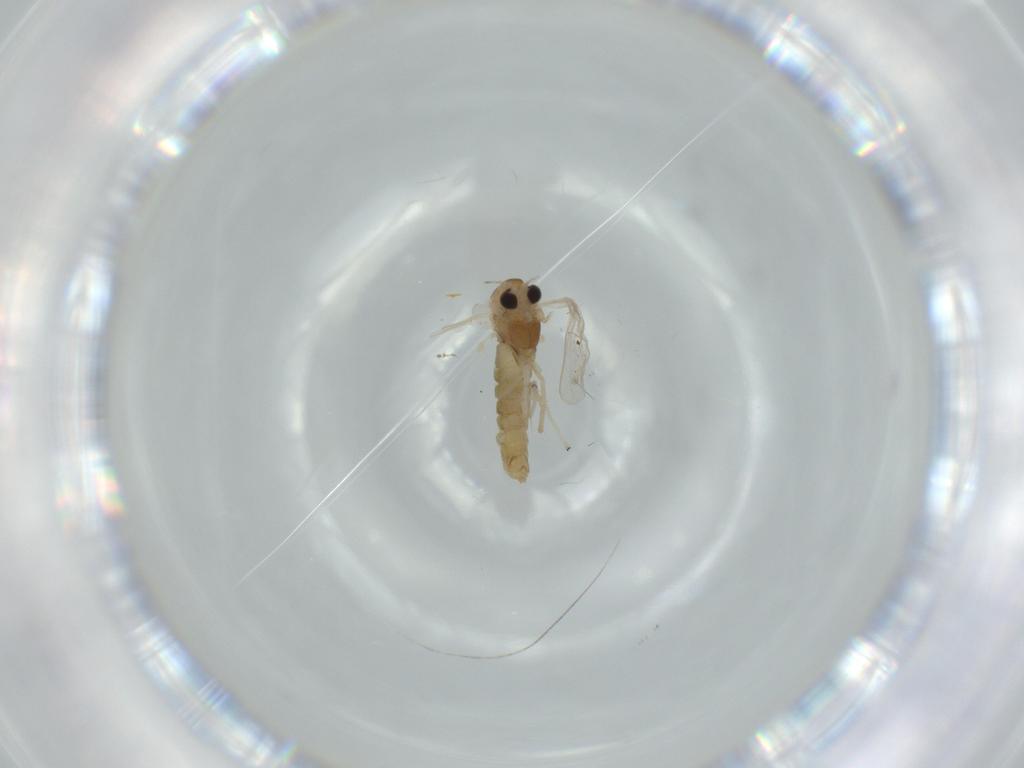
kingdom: Animalia
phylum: Arthropoda
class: Insecta
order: Diptera
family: Chironomidae
